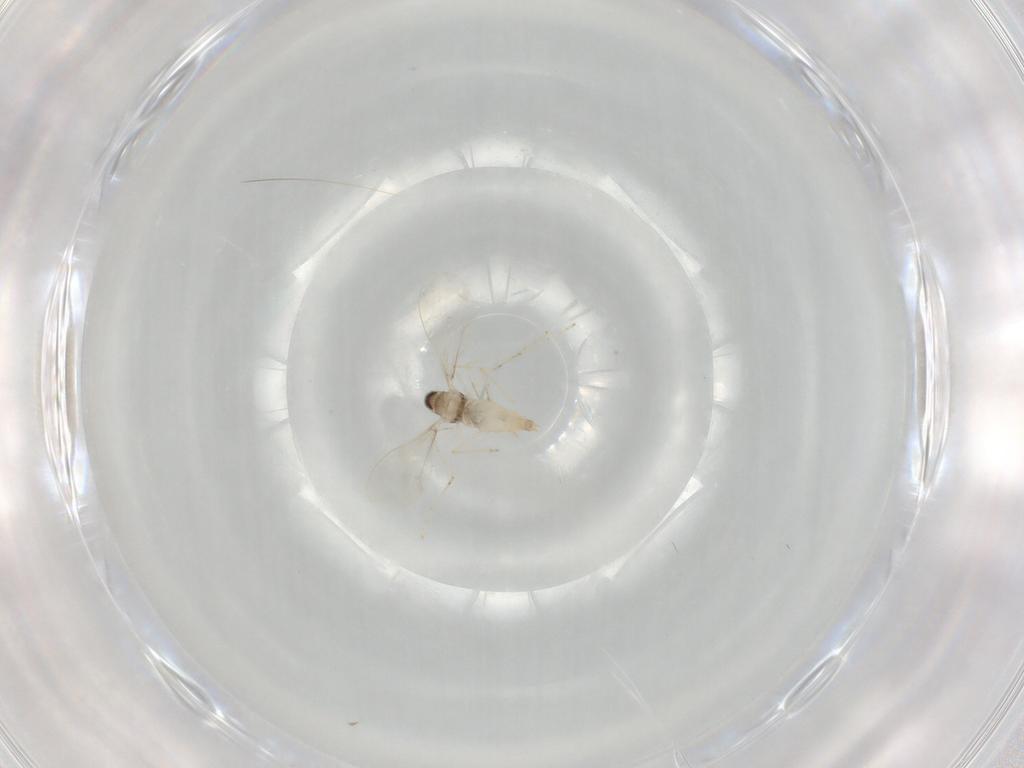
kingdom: Animalia
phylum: Arthropoda
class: Insecta
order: Diptera
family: Cecidomyiidae
